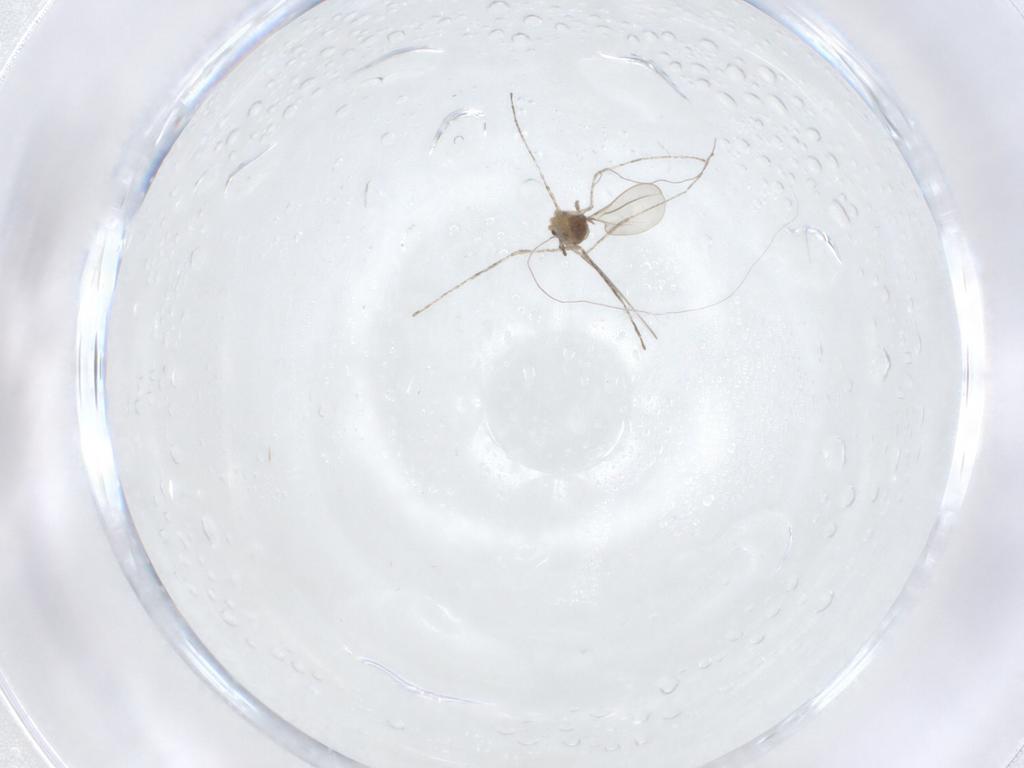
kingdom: Animalia
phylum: Arthropoda
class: Insecta
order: Diptera
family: Cecidomyiidae
